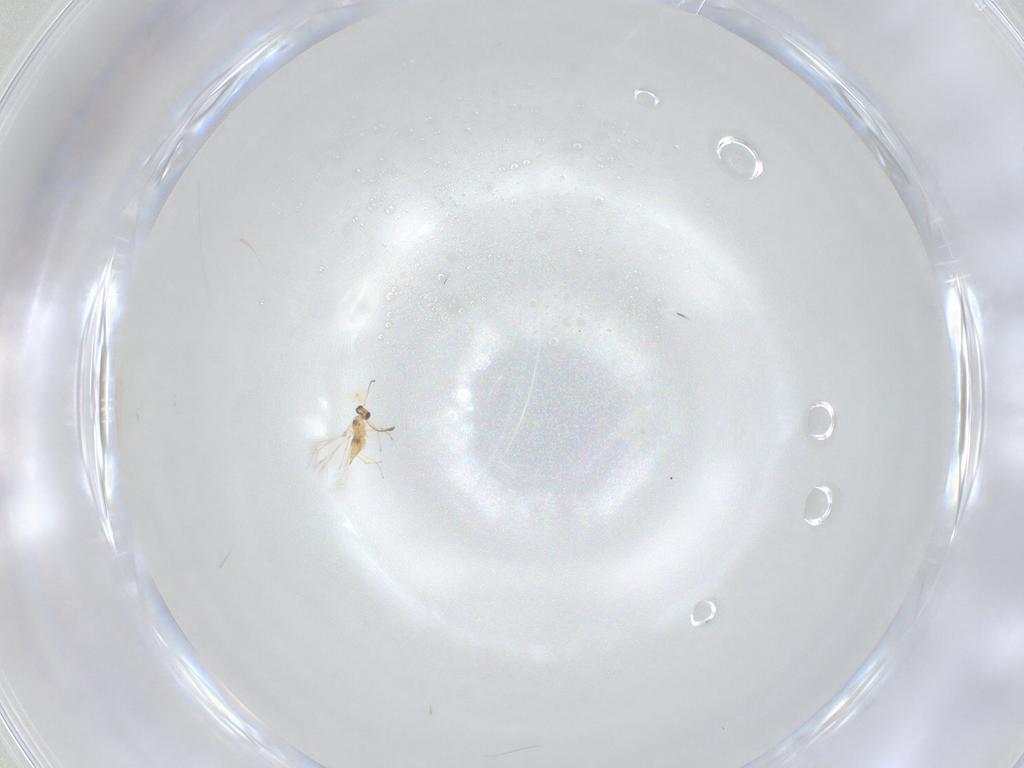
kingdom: Animalia
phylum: Arthropoda
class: Insecta
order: Hymenoptera
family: Mymaridae
